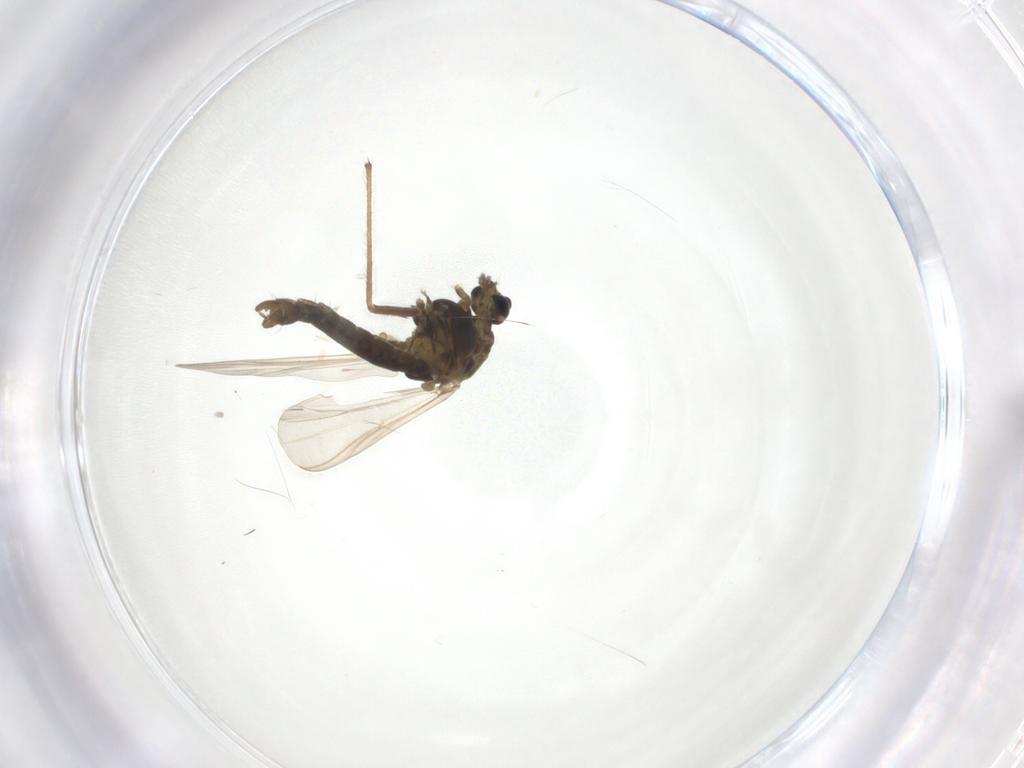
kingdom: Animalia
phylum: Arthropoda
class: Insecta
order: Diptera
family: Chironomidae
